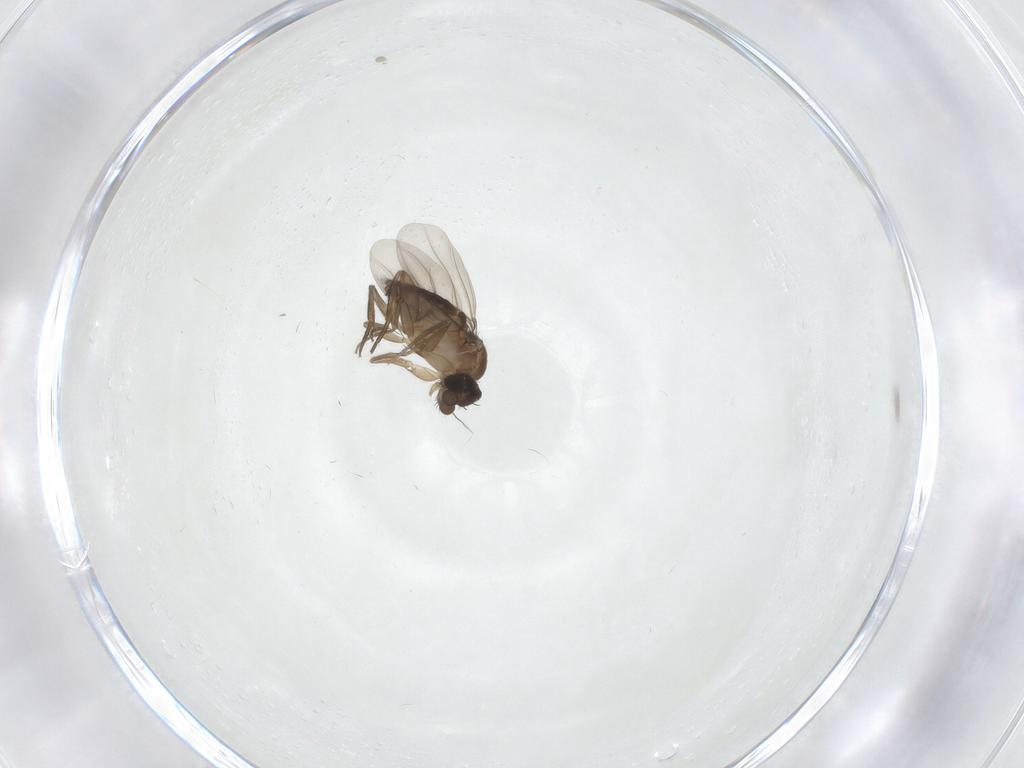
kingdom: Animalia
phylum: Arthropoda
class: Insecta
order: Diptera
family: Phoridae
